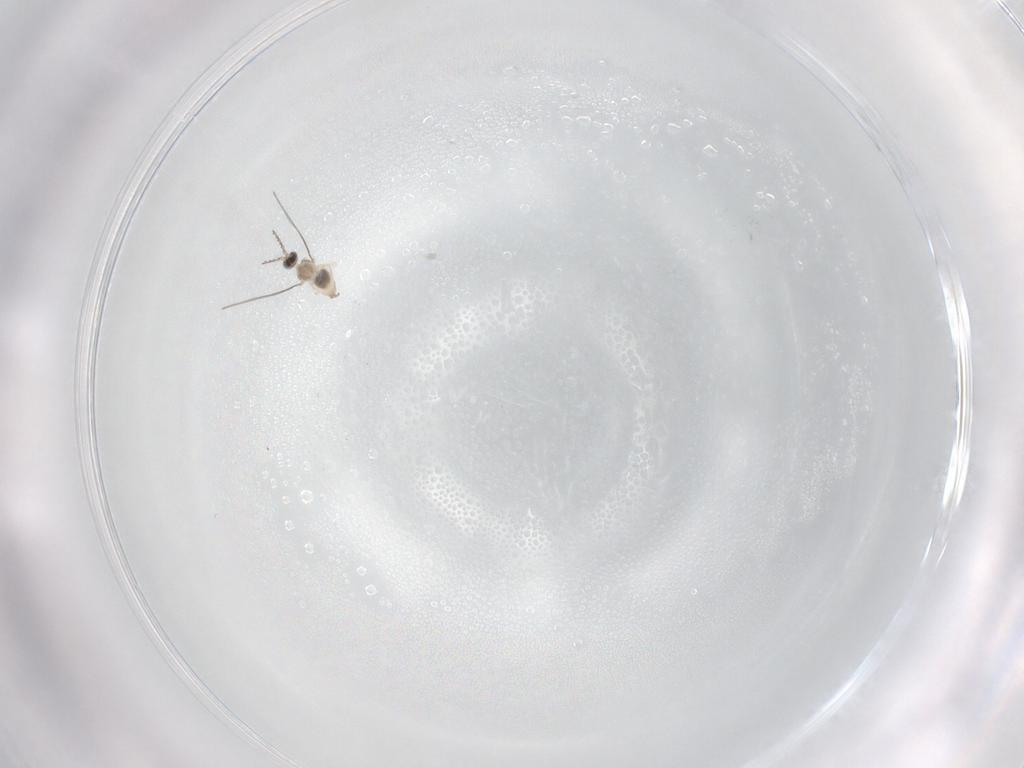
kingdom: Animalia
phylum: Arthropoda
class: Insecta
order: Diptera
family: Cecidomyiidae
